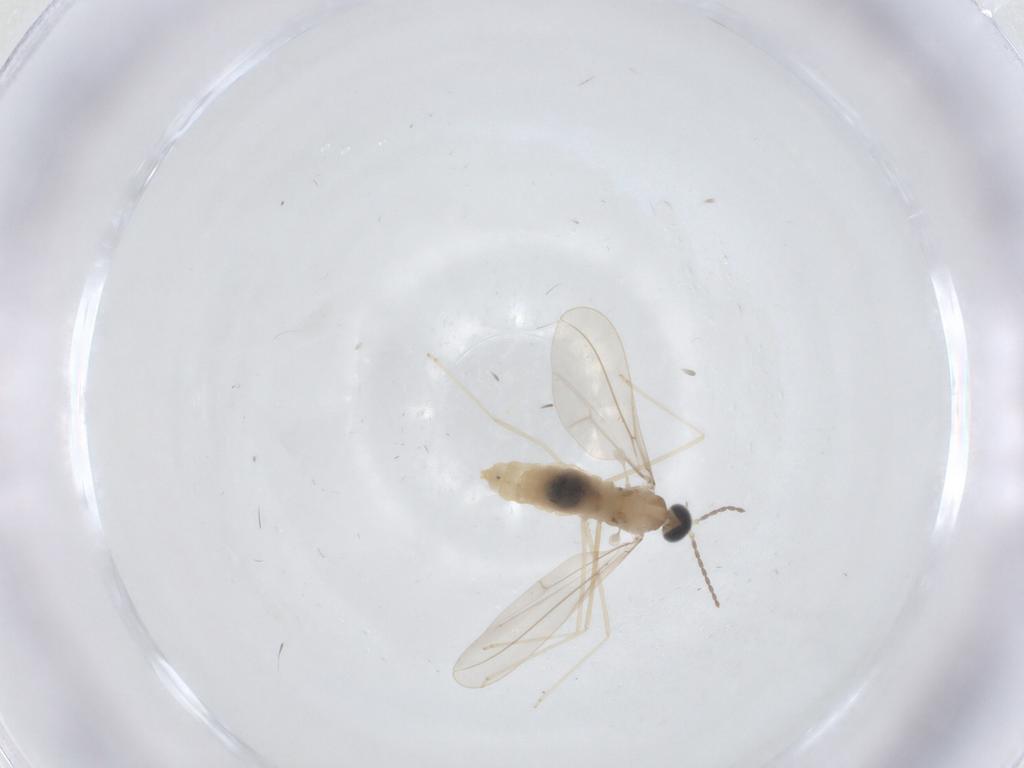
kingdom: Animalia
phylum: Arthropoda
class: Insecta
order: Diptera
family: Cecidomyiidae
